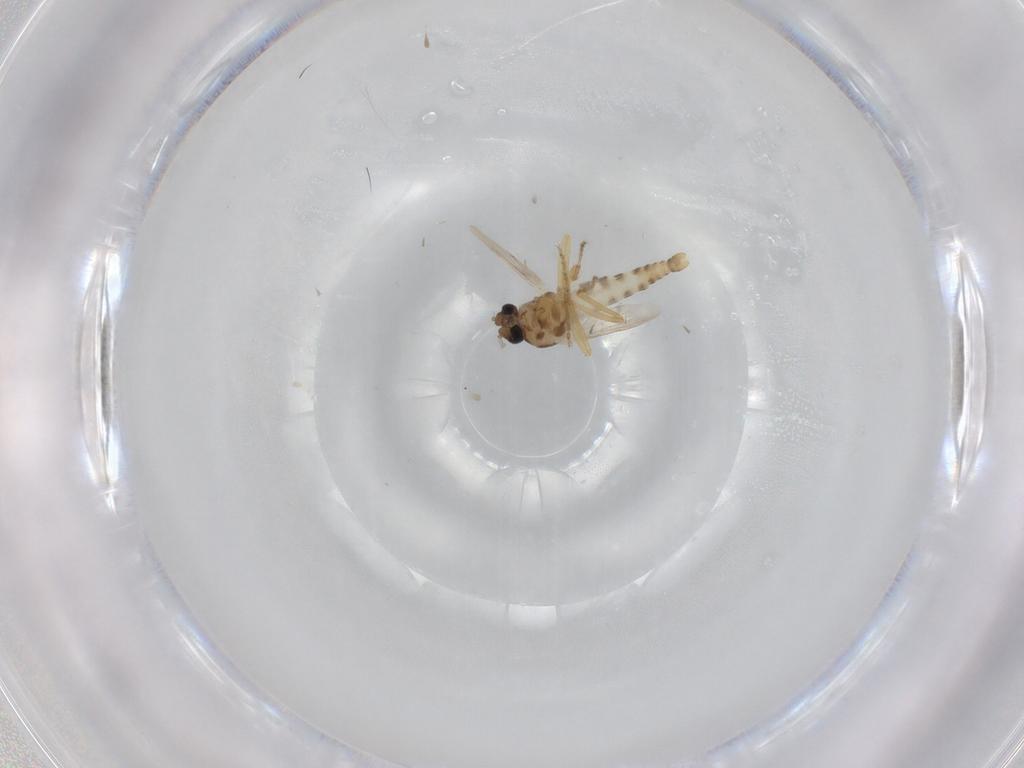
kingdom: Animalia
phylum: Arthropoda
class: Insecta
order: Diptera
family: Ceratopogonidae
